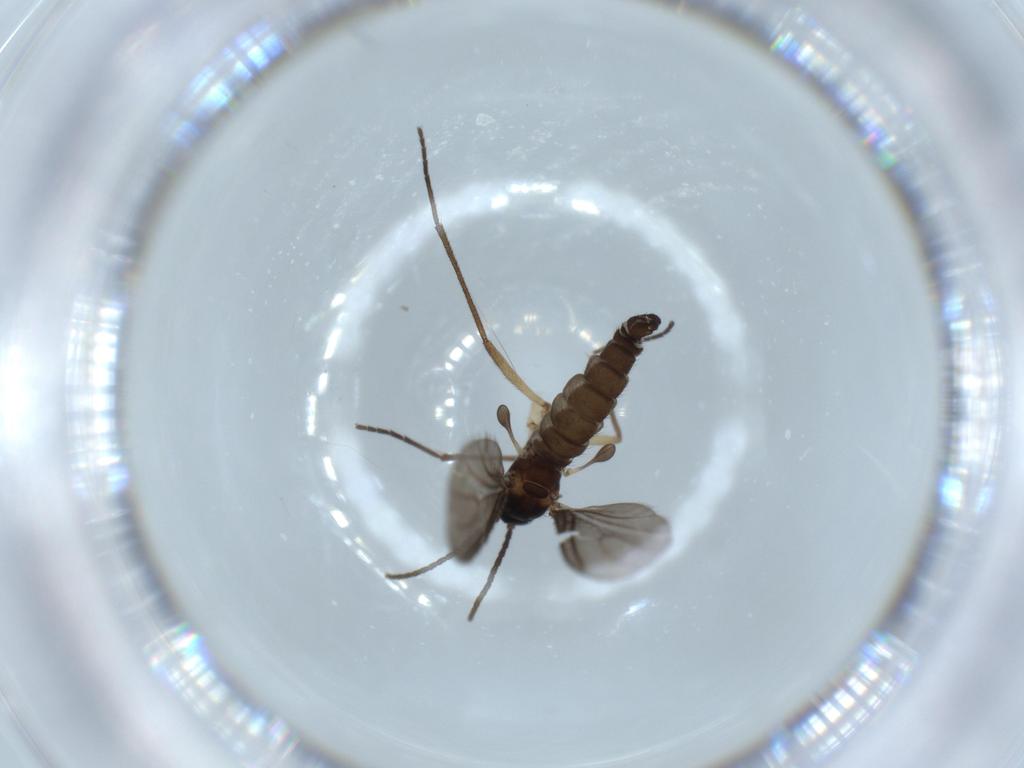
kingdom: Animalia
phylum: Arthropoda
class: Insecta
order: Diptera
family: Sciaridae
